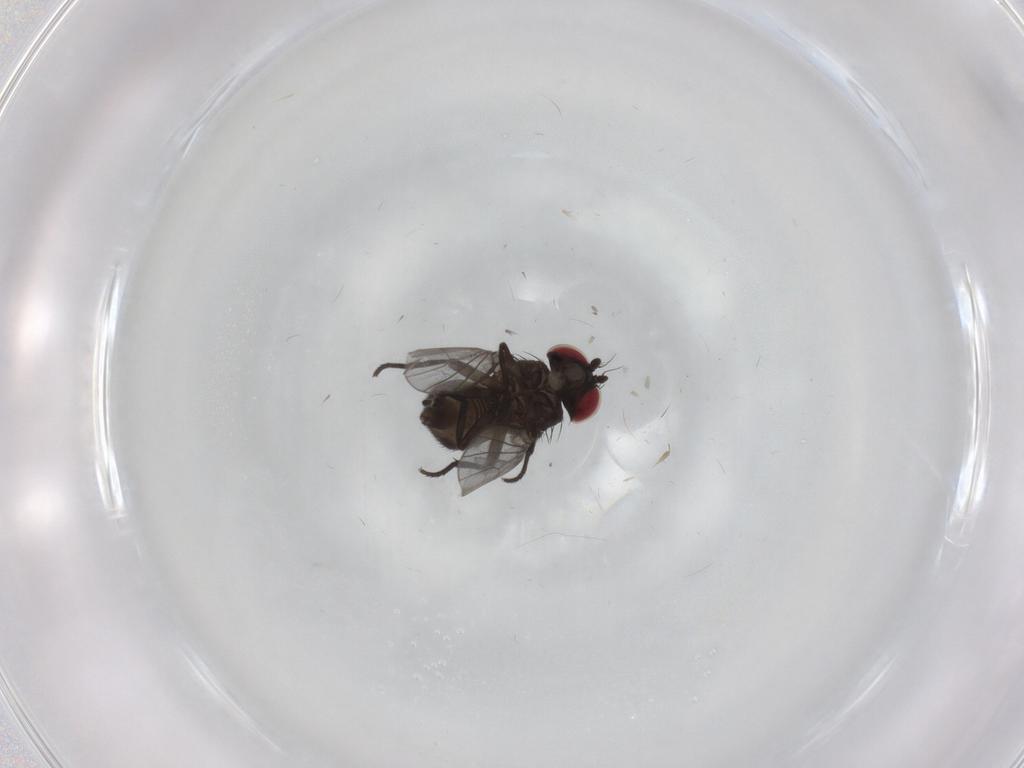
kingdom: Animalia
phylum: Arthropoda
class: Insecta
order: Diptera
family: Agromyzidae
